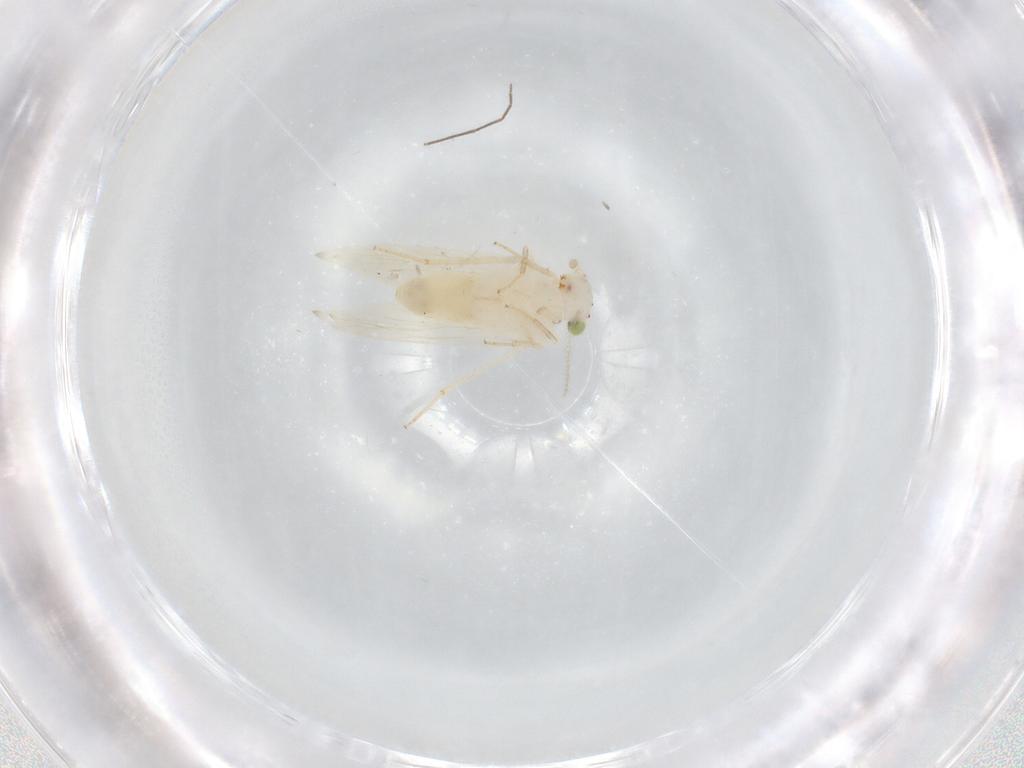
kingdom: Animalia
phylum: Arthropoda
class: Insecta
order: Psocodea
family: Lepidopsocidae
